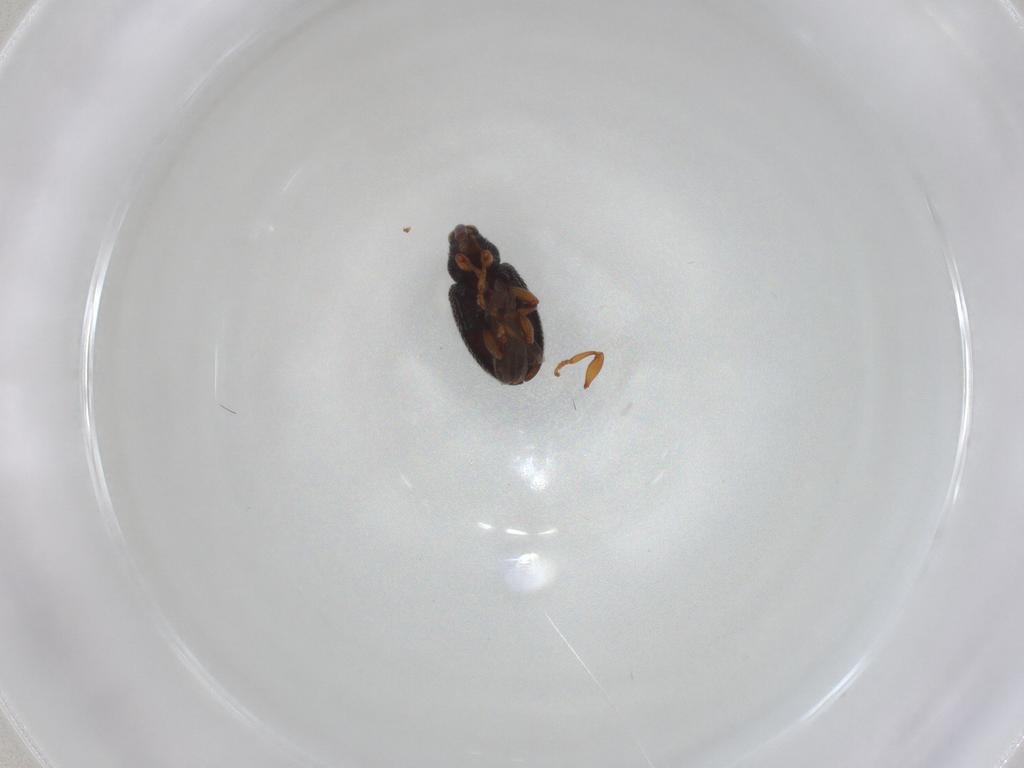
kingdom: Animalia
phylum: Arthropoda
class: Insecta
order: Coleoptera
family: Curculionidae
